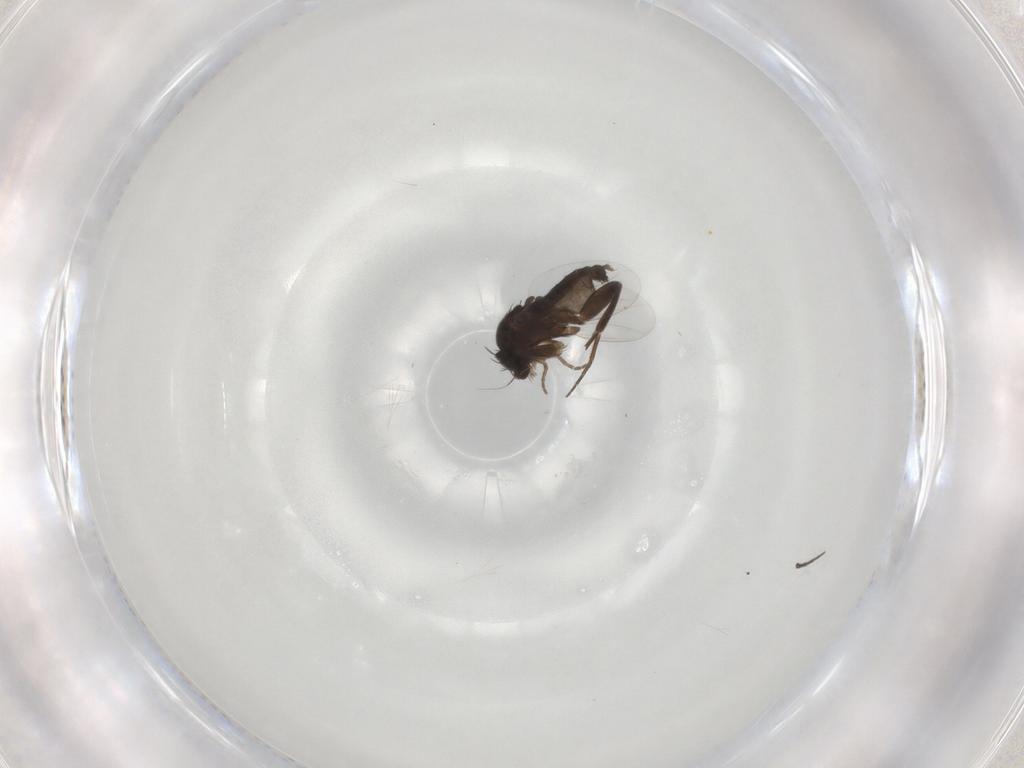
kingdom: Animalia
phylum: Arthropoda
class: Insecta
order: Diptera
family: Phoridae
